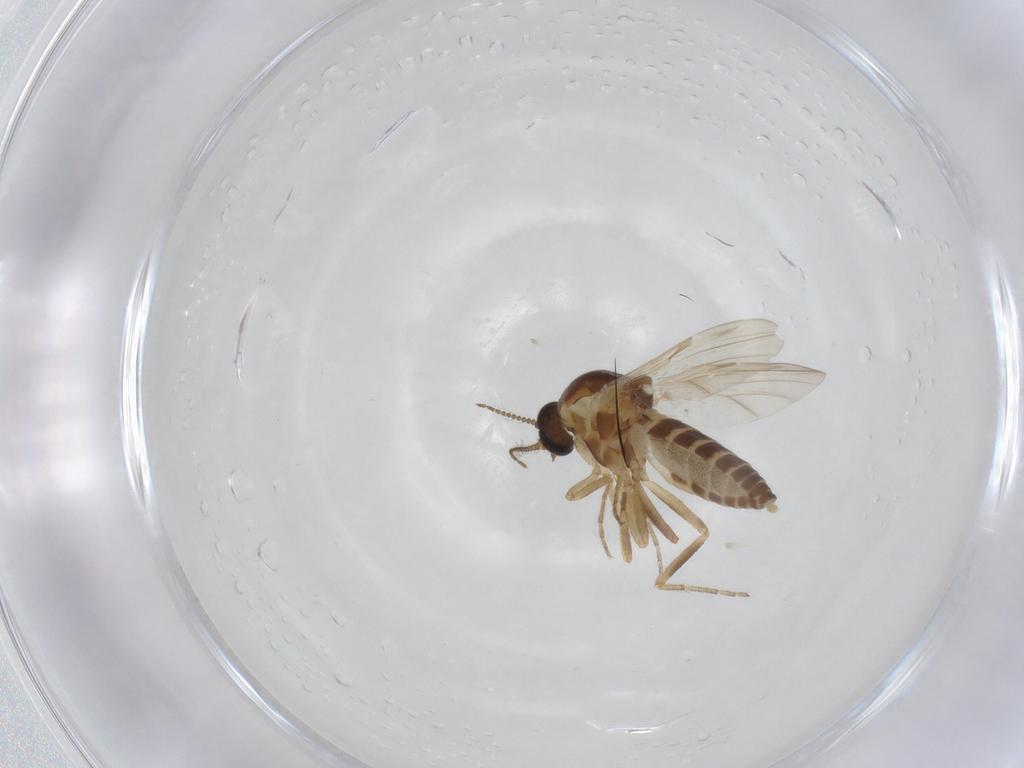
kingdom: Animalia
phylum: Arthropoda
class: Insecta
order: Diptera
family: Ceratopogonidae
